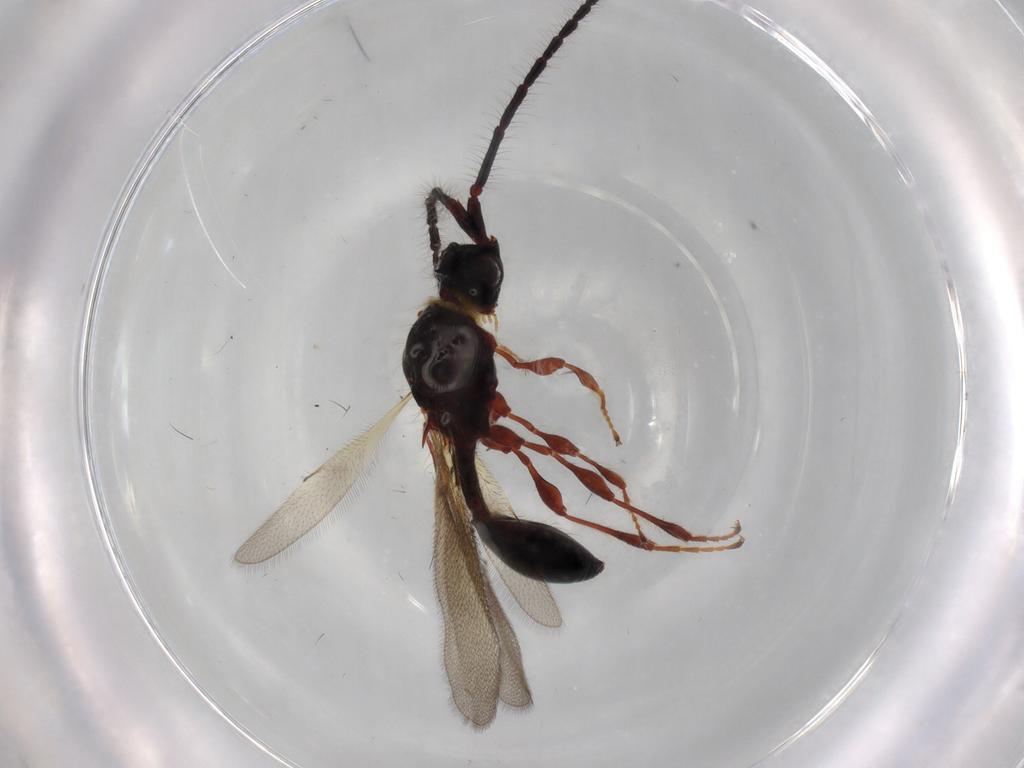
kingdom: Animalia
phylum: Arthropoda
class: Insecta
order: Hymenoptera
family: Diapriidae
